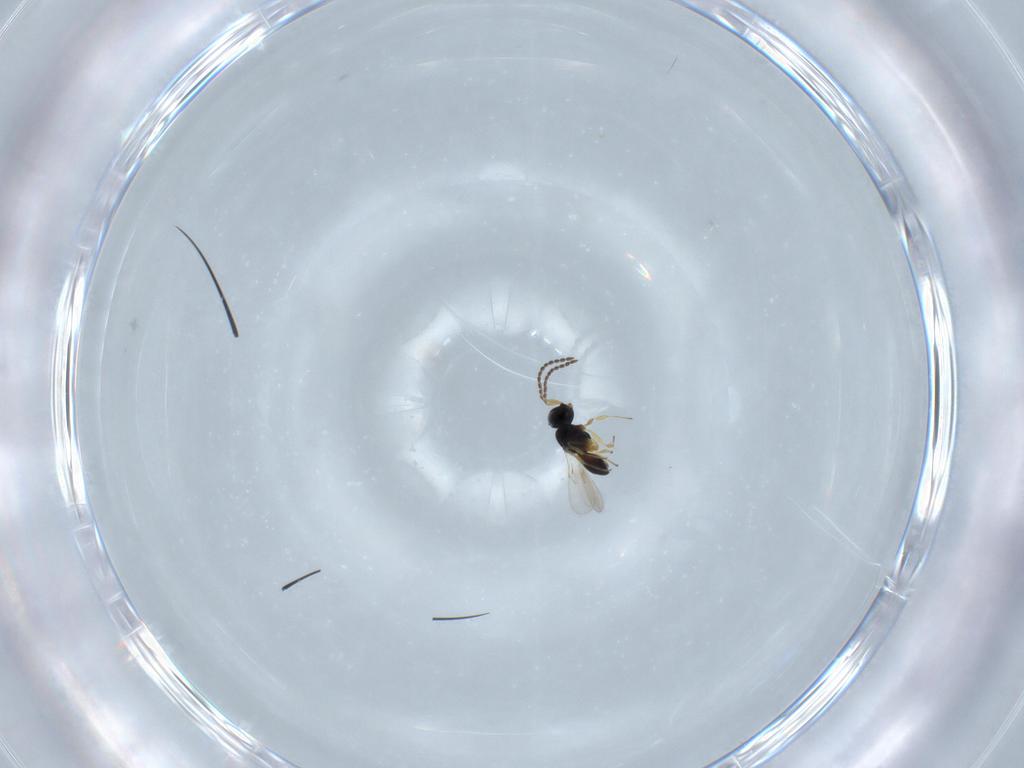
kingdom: Animalia
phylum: Arthropoda
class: Insecta
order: Hymenoptera
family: Scelionidae
